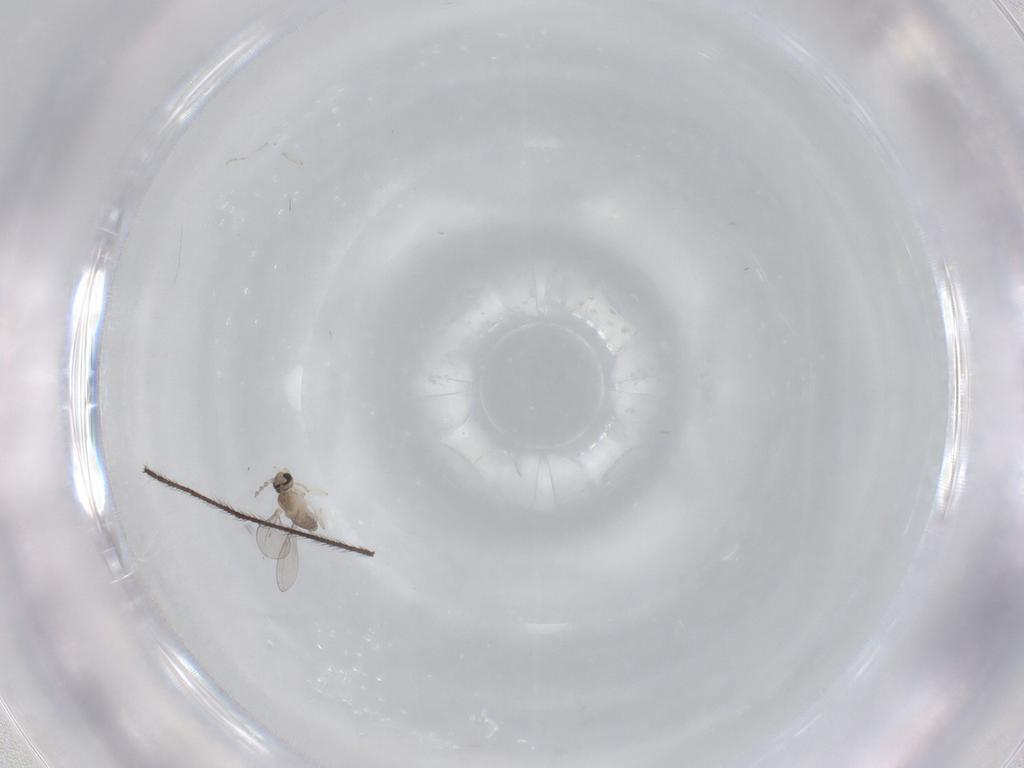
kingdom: Animalia
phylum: Arthropoda
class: Insecta
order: Diptera
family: Cecidomyiidae
